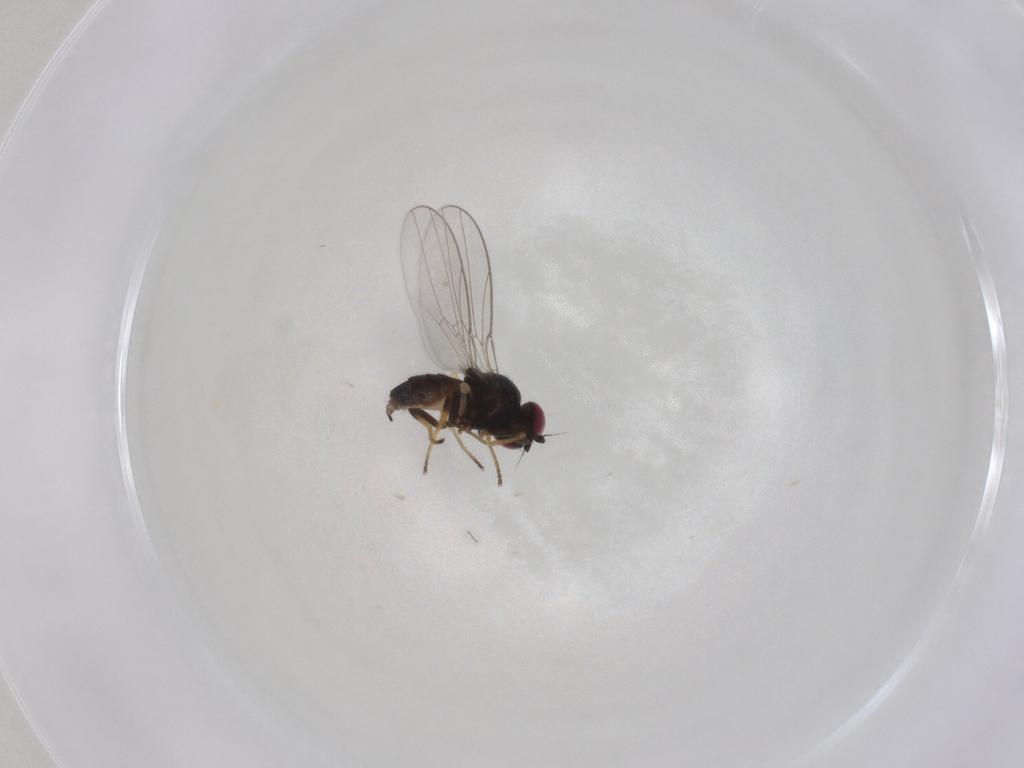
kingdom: Animalia
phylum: Arthropoda
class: Insecta
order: Diptera
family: Chloropidae
